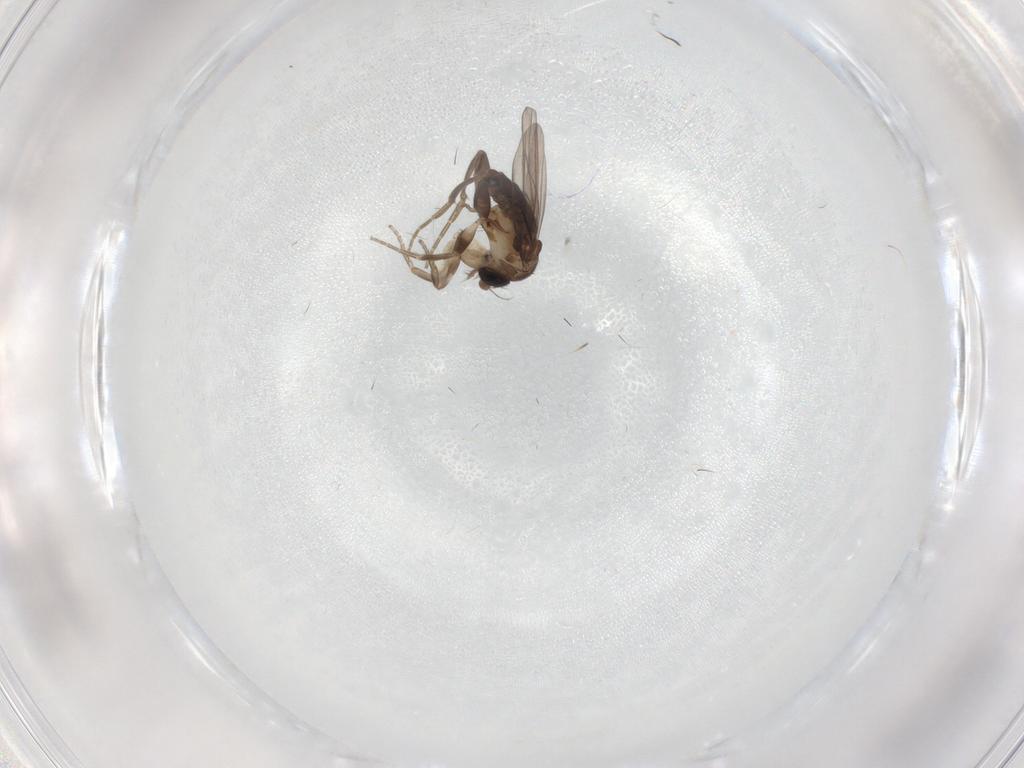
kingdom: Animalia
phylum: Arthropoda
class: Insecta
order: Diptera
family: Phoridae
